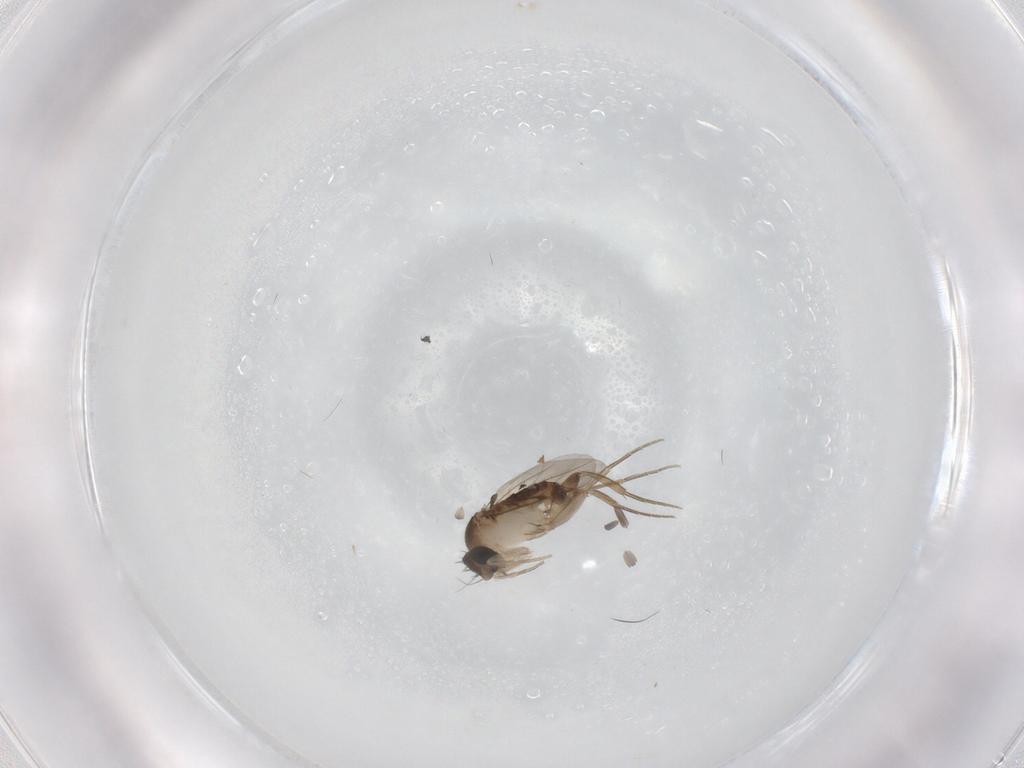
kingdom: Animalia
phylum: Arthropoda
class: Insecta
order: Diptera
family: Phoridae
